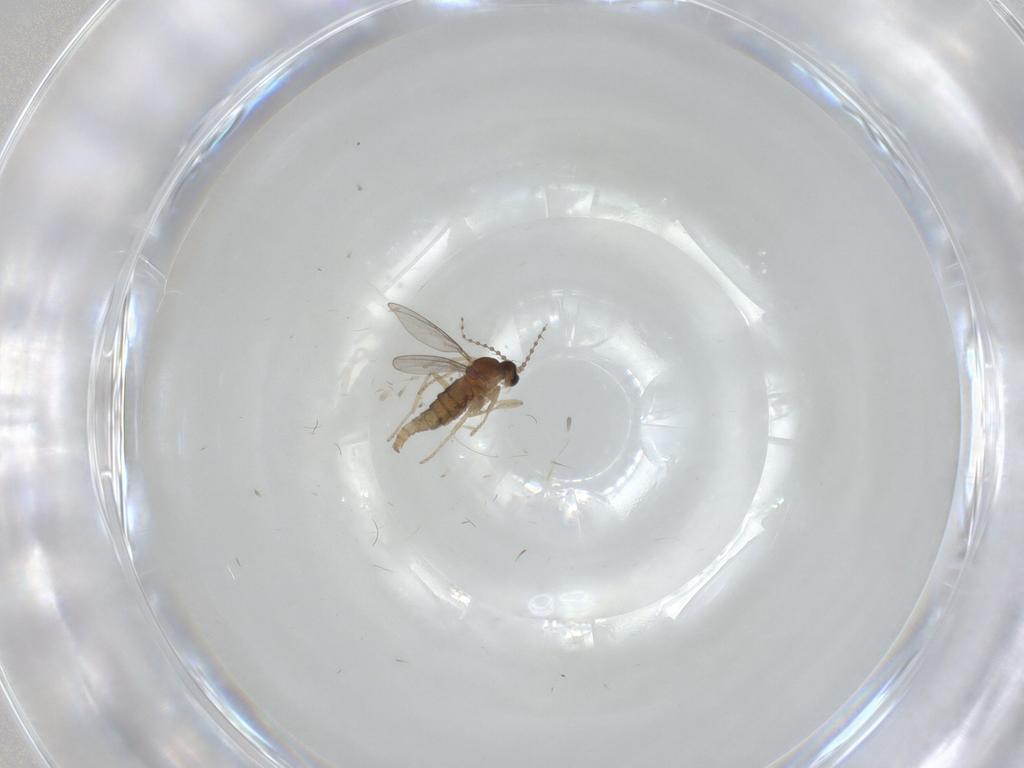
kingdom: Animalia
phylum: Arthropoda
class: Insecta
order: Diptera
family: Cecidomyiidae
